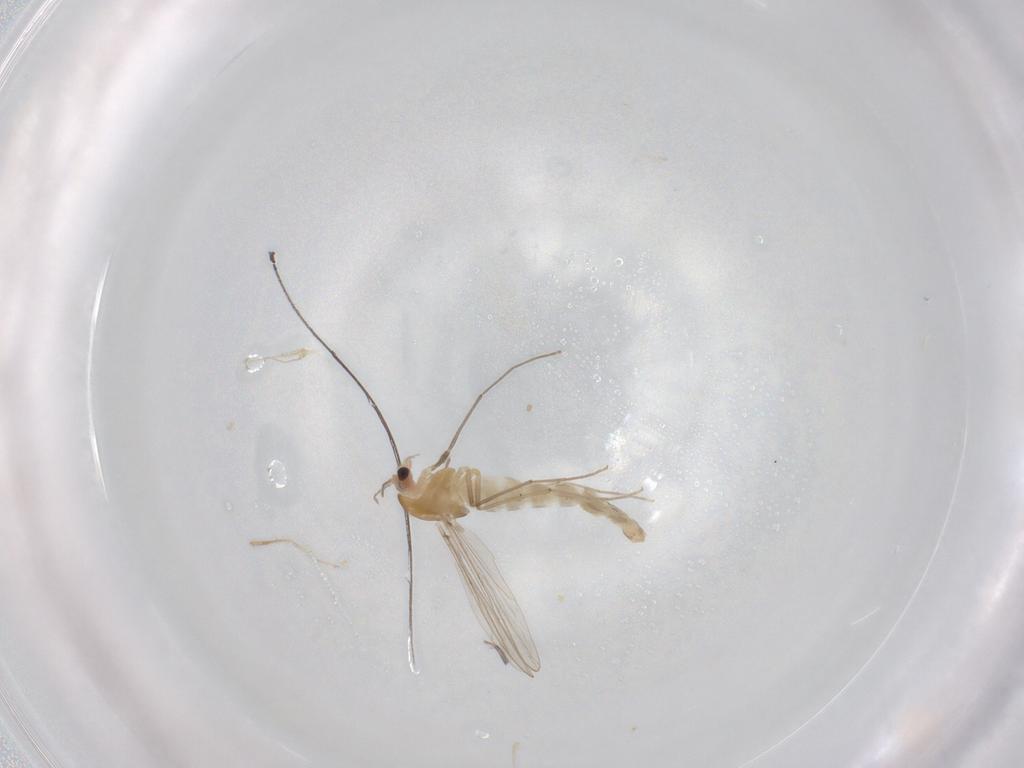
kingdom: Animalia
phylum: Arthropoda
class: Insecta
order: Diptera
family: Chironomidae
